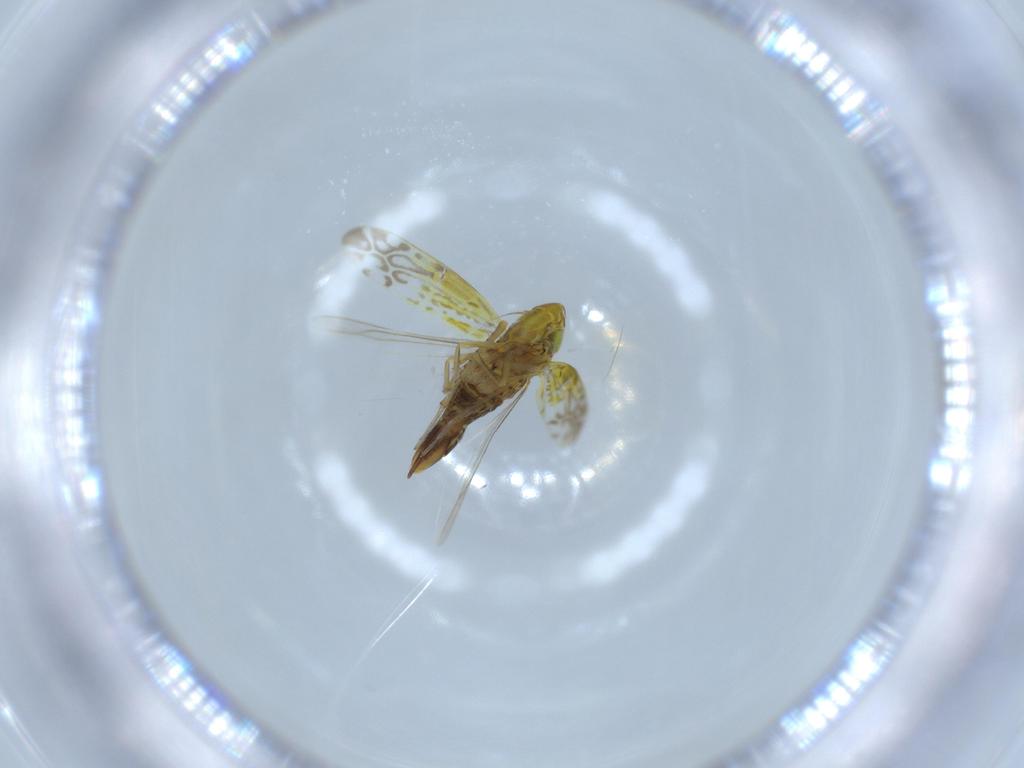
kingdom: Animalia
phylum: Arthropoda
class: Insecta
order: Hemiptera
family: Cicadellidae
